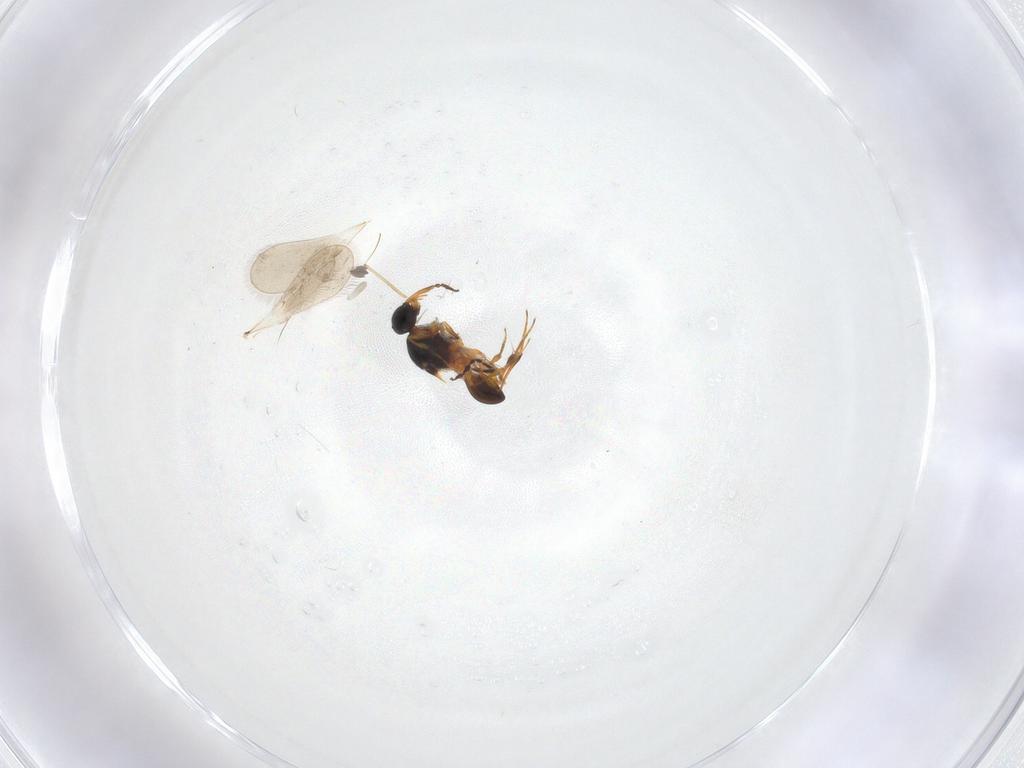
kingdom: Animalia
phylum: Arthropoda
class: Insecta
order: Hymenoptera
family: Platygastridae
